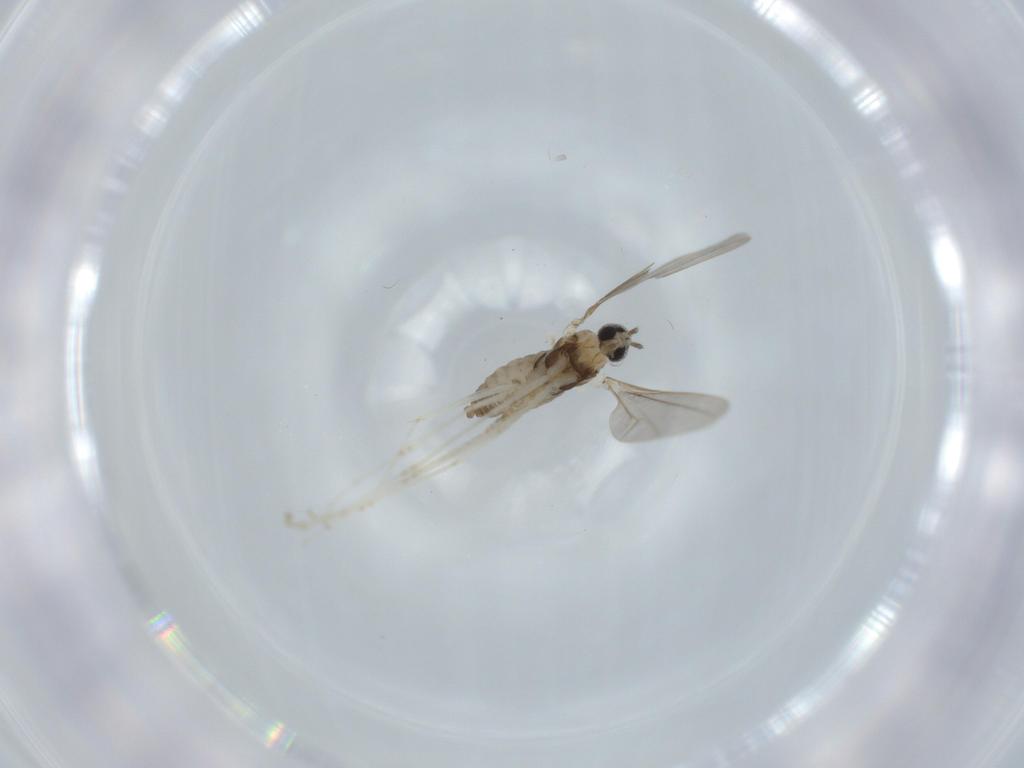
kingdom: Animalia
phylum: Arthropoda
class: Insecta
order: Diptera
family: Cecidomyiidae
